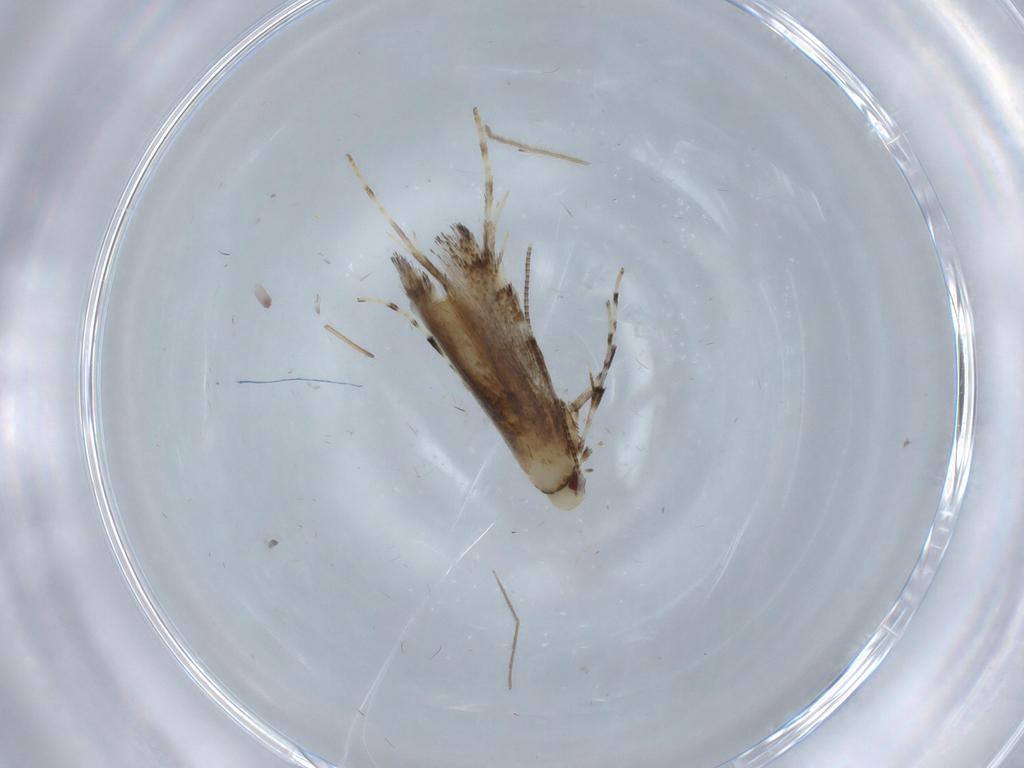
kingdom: Animalia
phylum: Arthropoda
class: Insecta
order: Lepidoptera
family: Gracillariidae
